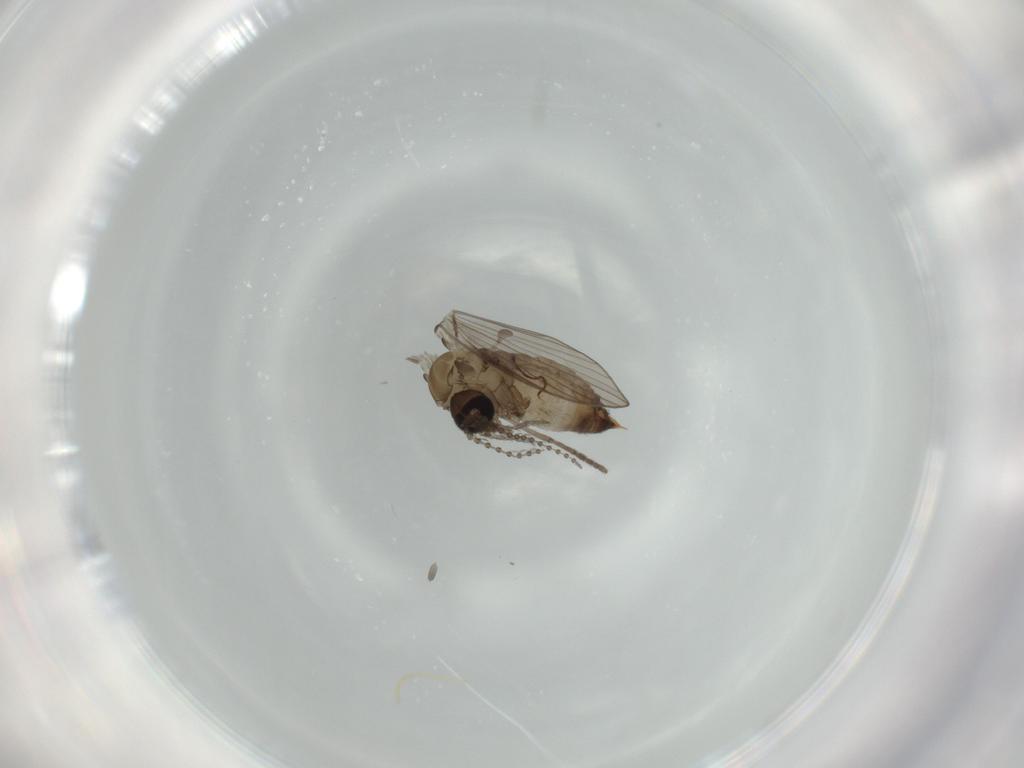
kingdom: Animalia
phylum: Arthropoda
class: Insecta
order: Diptera
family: Psychodidae
